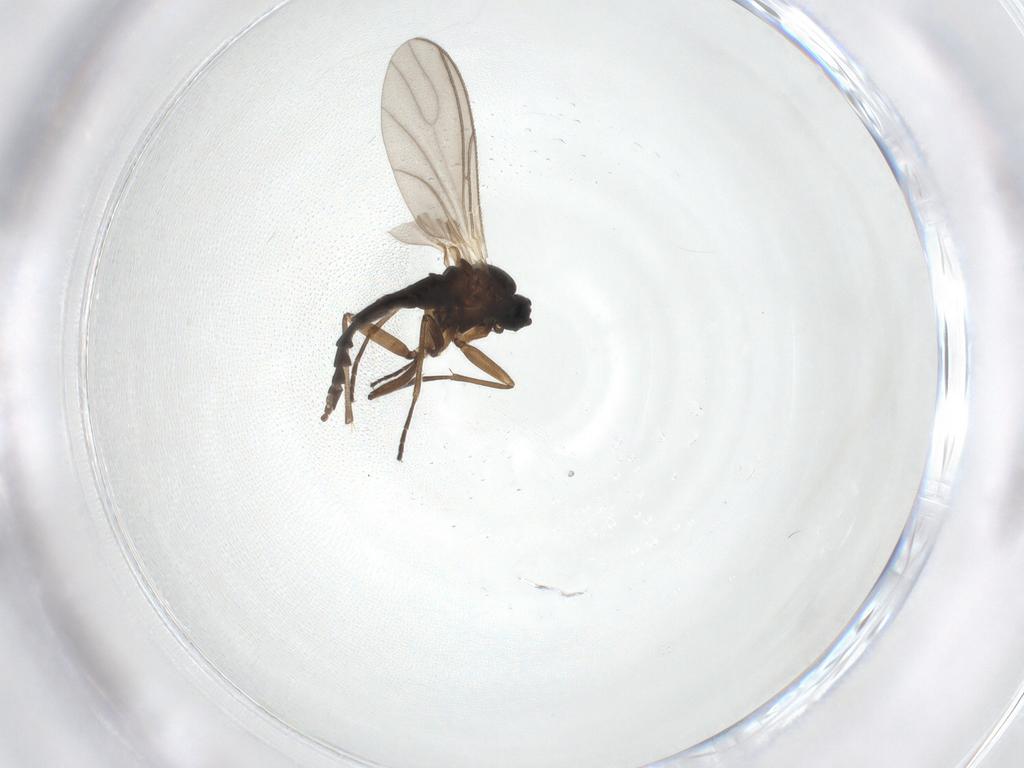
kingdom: Animalia
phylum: Arthropoda
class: Insecta
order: Diptera
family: Sciaridae
